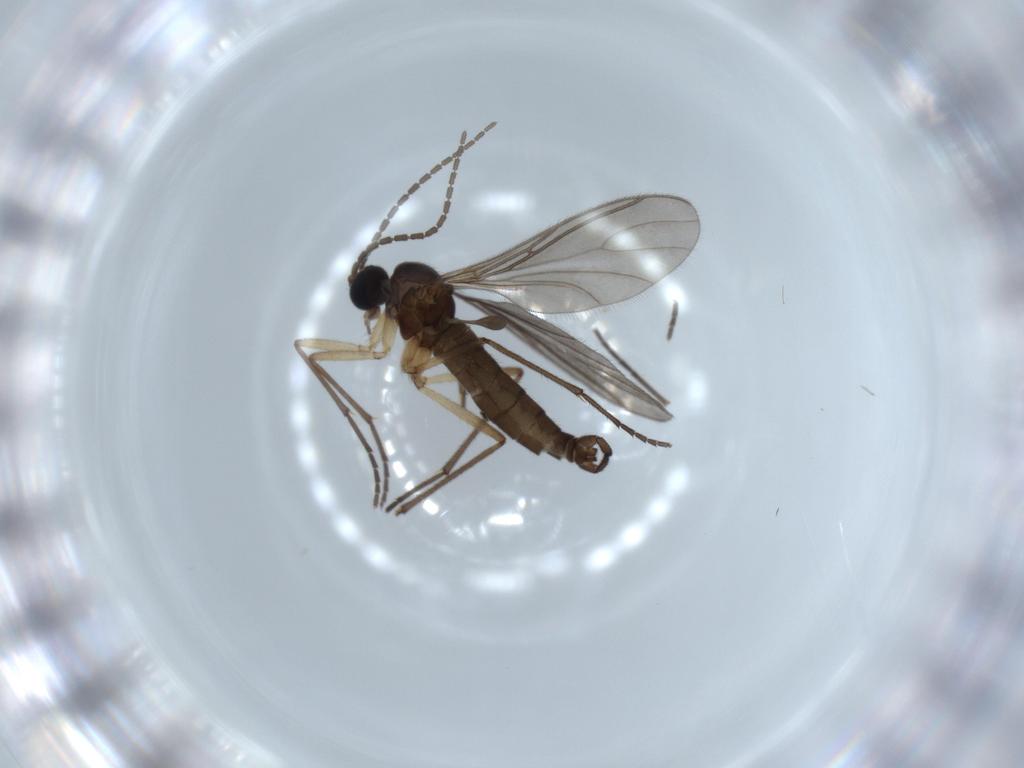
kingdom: Animalia
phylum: Arthropoda
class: Insecta
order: Diptera
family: Sciaridae
